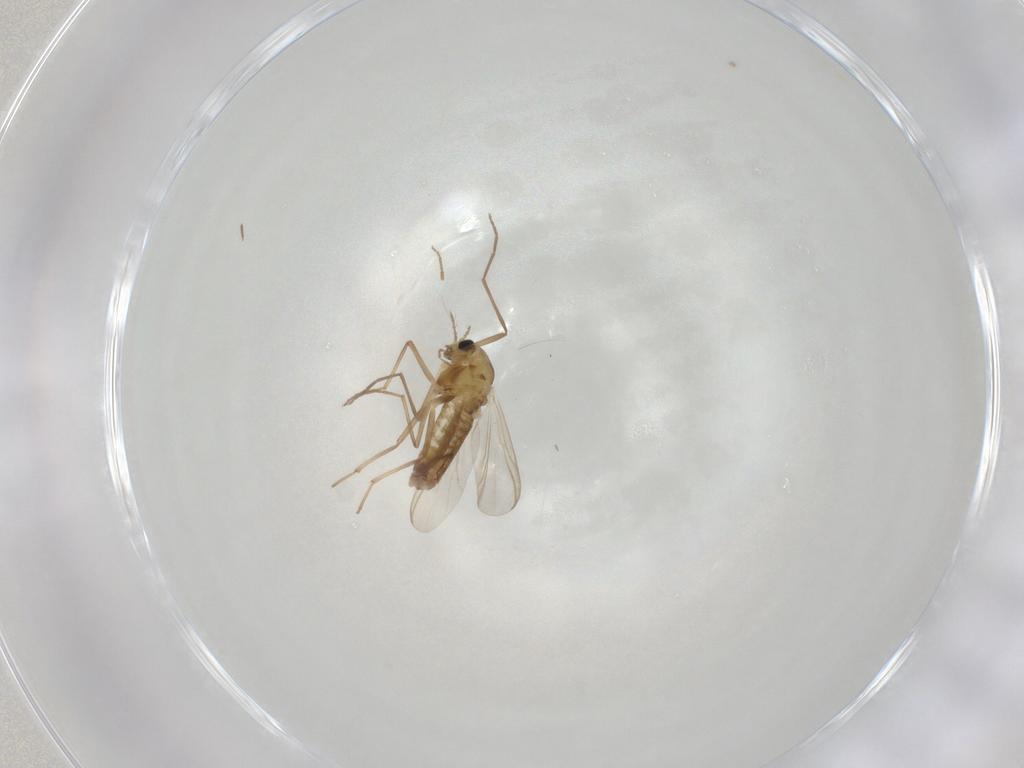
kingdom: Animalia
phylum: Arthropoda
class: Insecta
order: Diptera
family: Chironomidae
